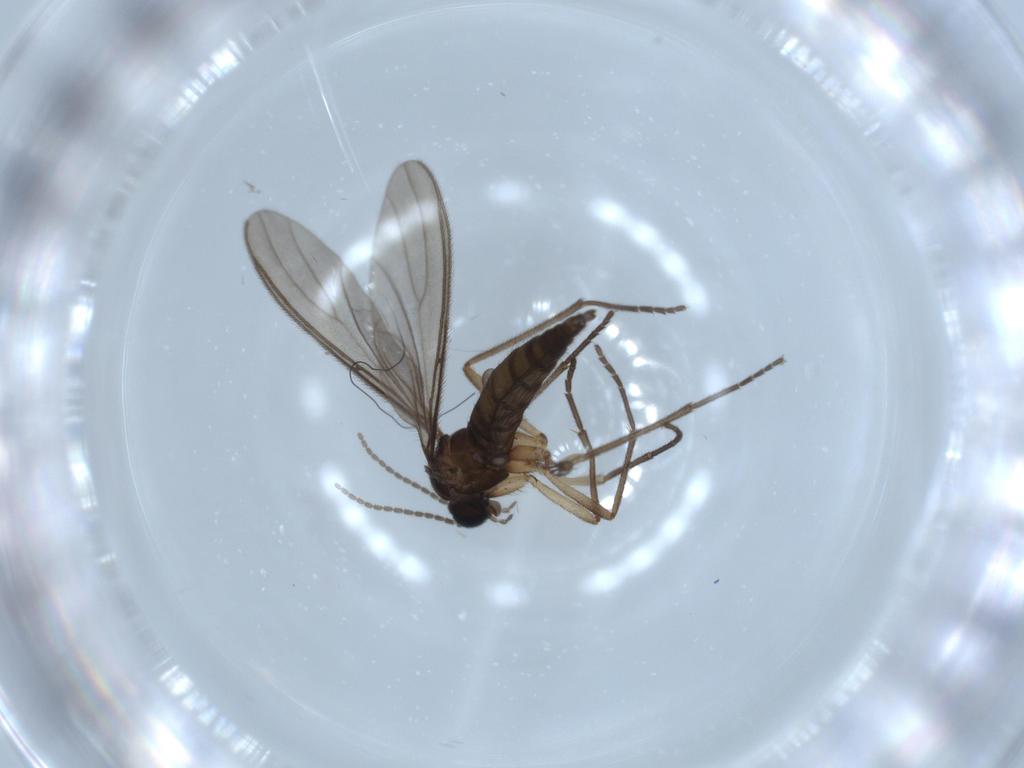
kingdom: Animalia
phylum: Arthropoda
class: Insecta
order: Diptera
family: Sciaridae
